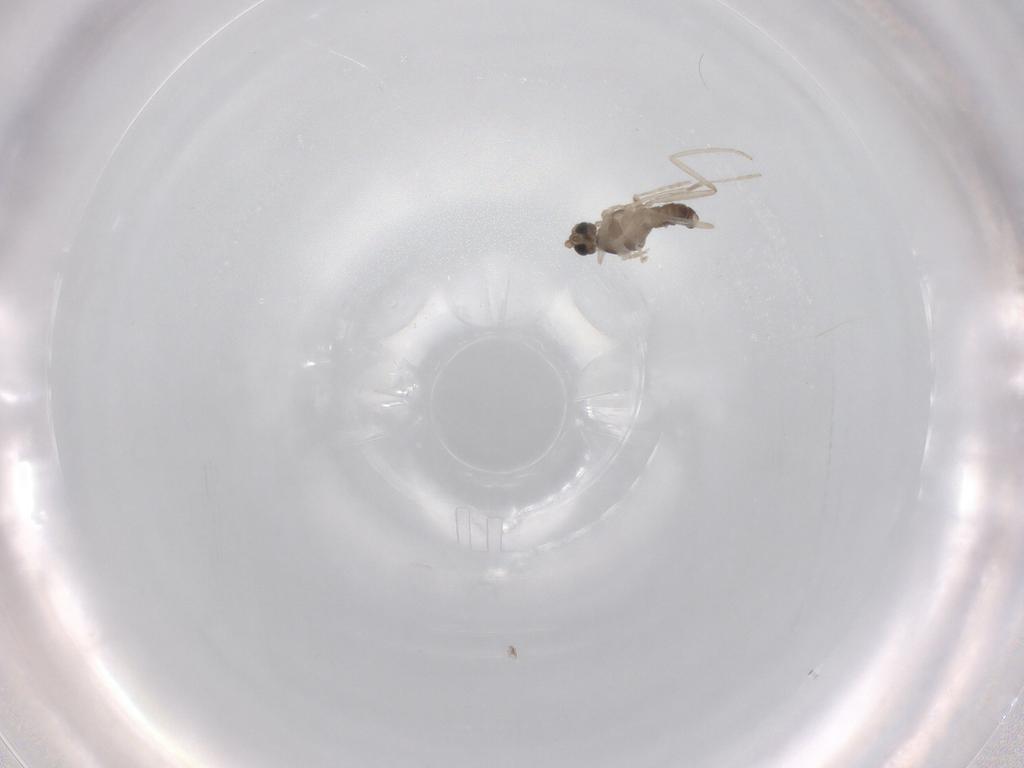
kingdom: Animalia
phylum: Arthropoda
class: Insecta
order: Diptera
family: Chloropidae
